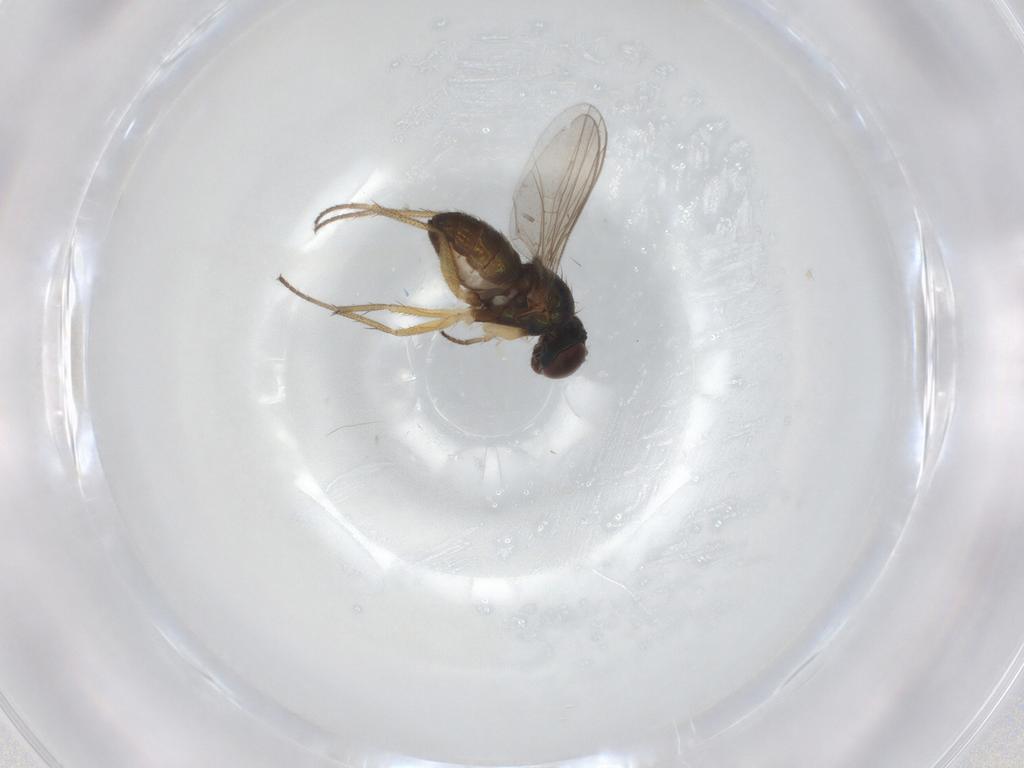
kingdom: Animalia
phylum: Arthropoda
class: Insecta
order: Diptera
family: Dolichopodidae
